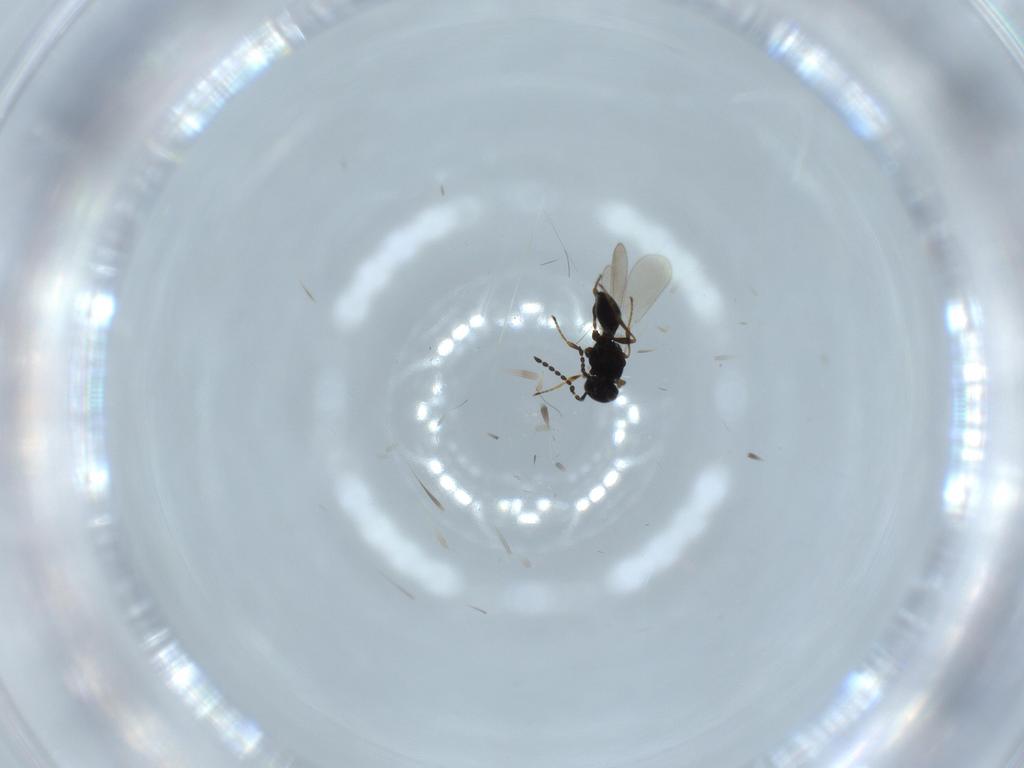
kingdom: Animalia
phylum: Arthropoda
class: Insecta
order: Hymenoptera
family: Platygastridae
